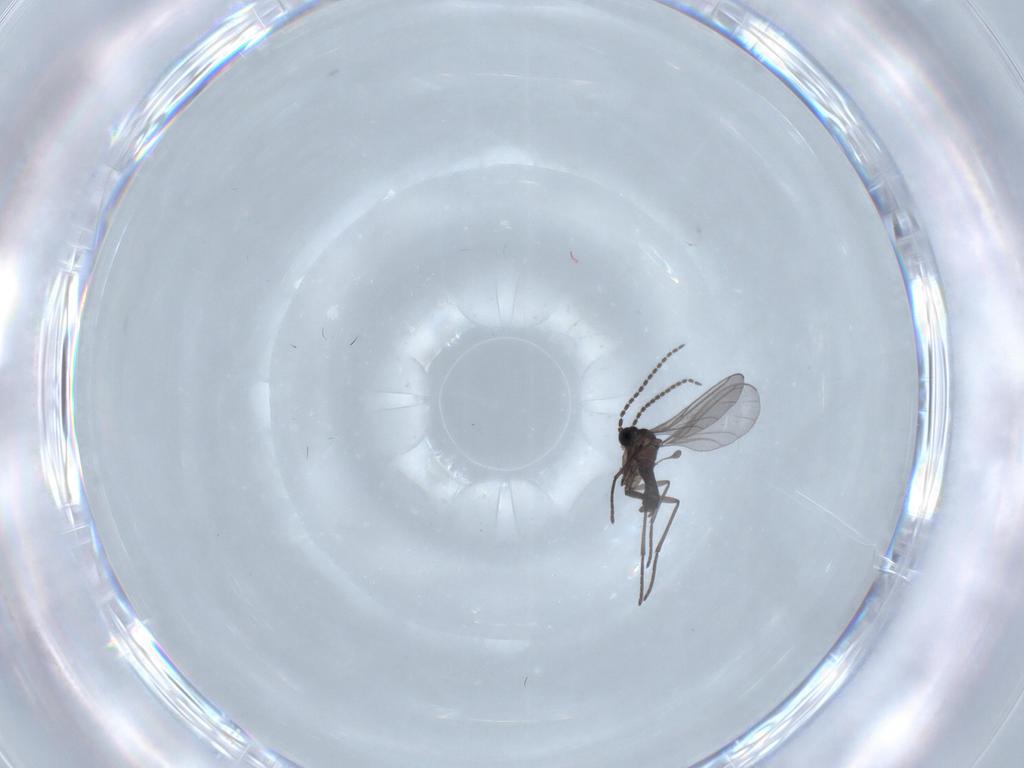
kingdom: Animalia
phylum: Arthropoda
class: Insecta
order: Diptera
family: Sciaridae
